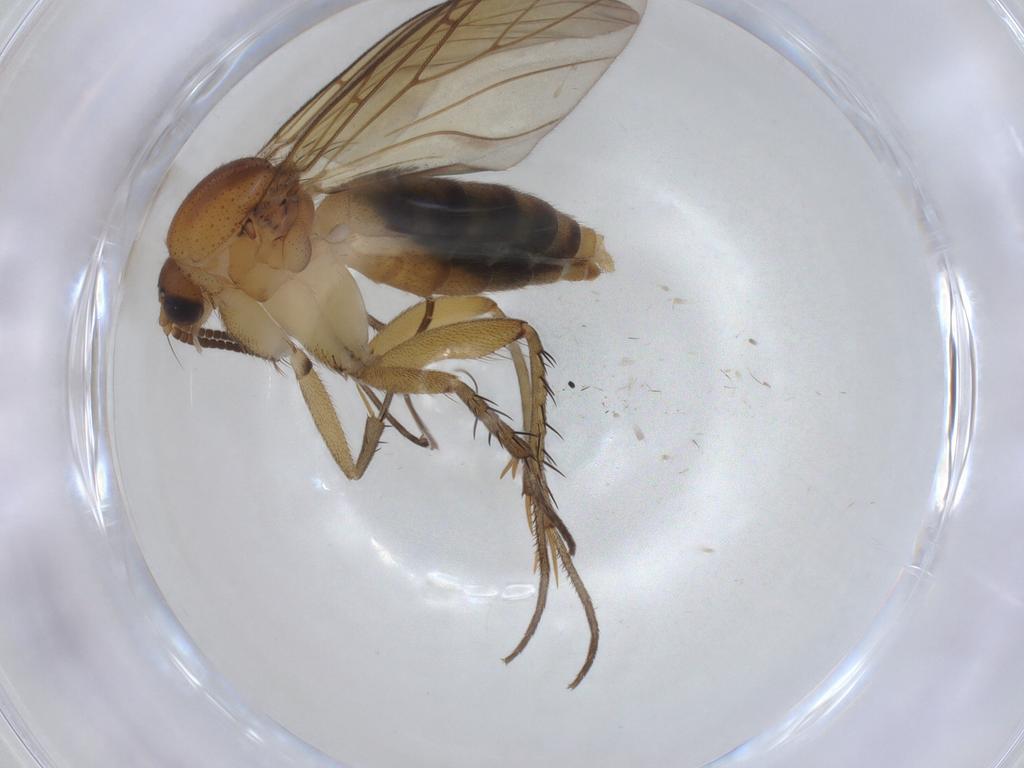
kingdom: Animalia
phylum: Arthropoda
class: Insecta
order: Diptera
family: Mycetophilidae
